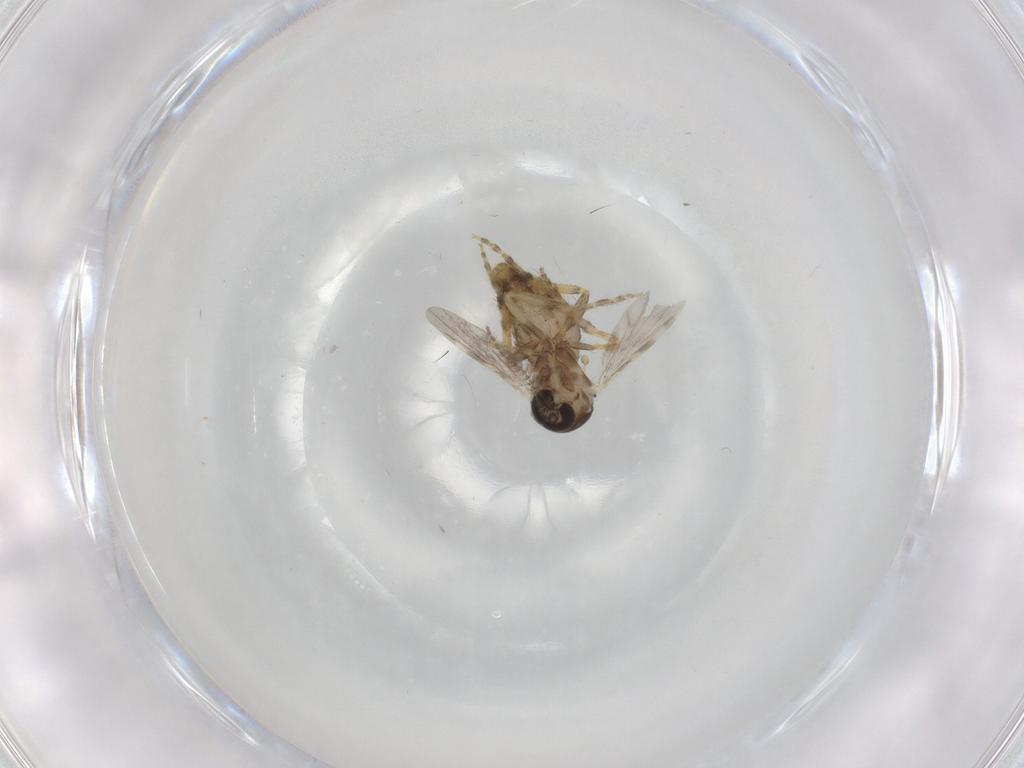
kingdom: Animalia
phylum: Arthropoda
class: Insecta
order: Diptera
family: Ceratopogonidae
